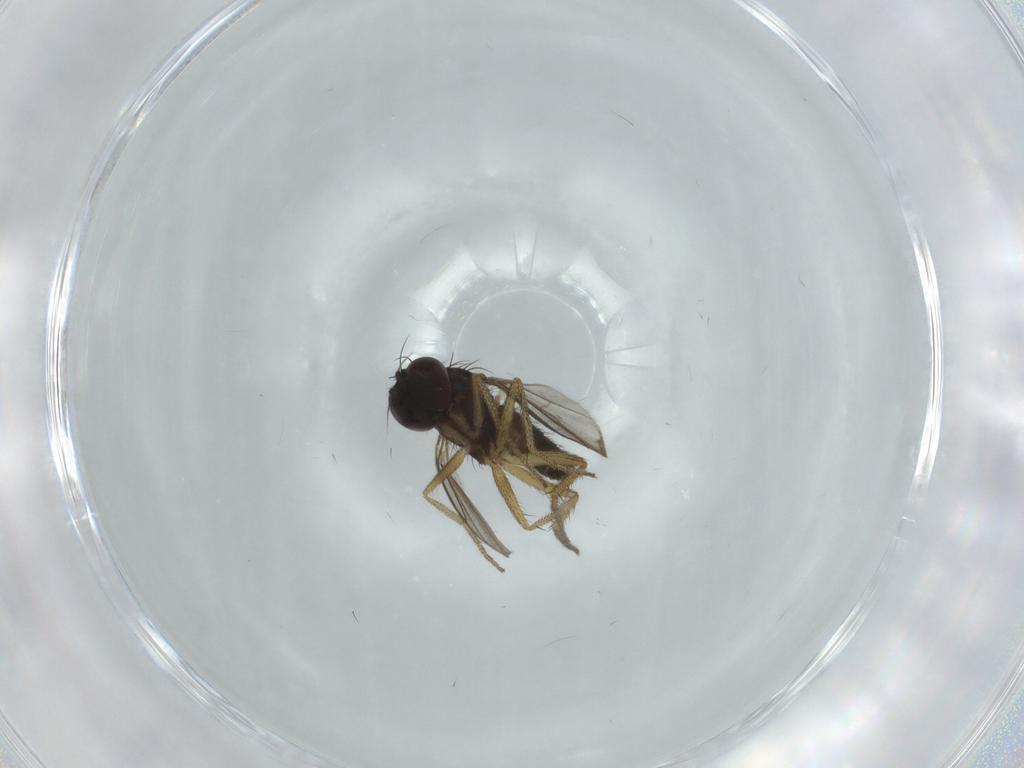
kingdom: Animalia
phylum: Arthropoda
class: Insecta
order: Diptera
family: Dolichopodidae
